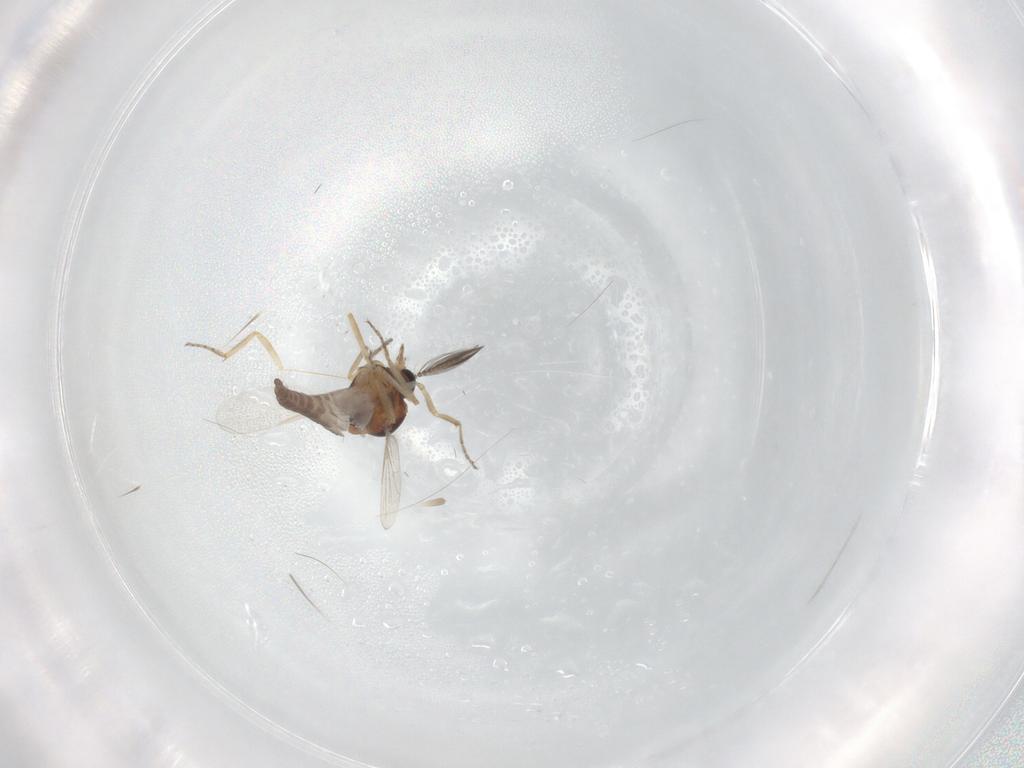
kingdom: Animalia
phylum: Arthropoda
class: Insecta
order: Diptera
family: Ceratopogonidae
